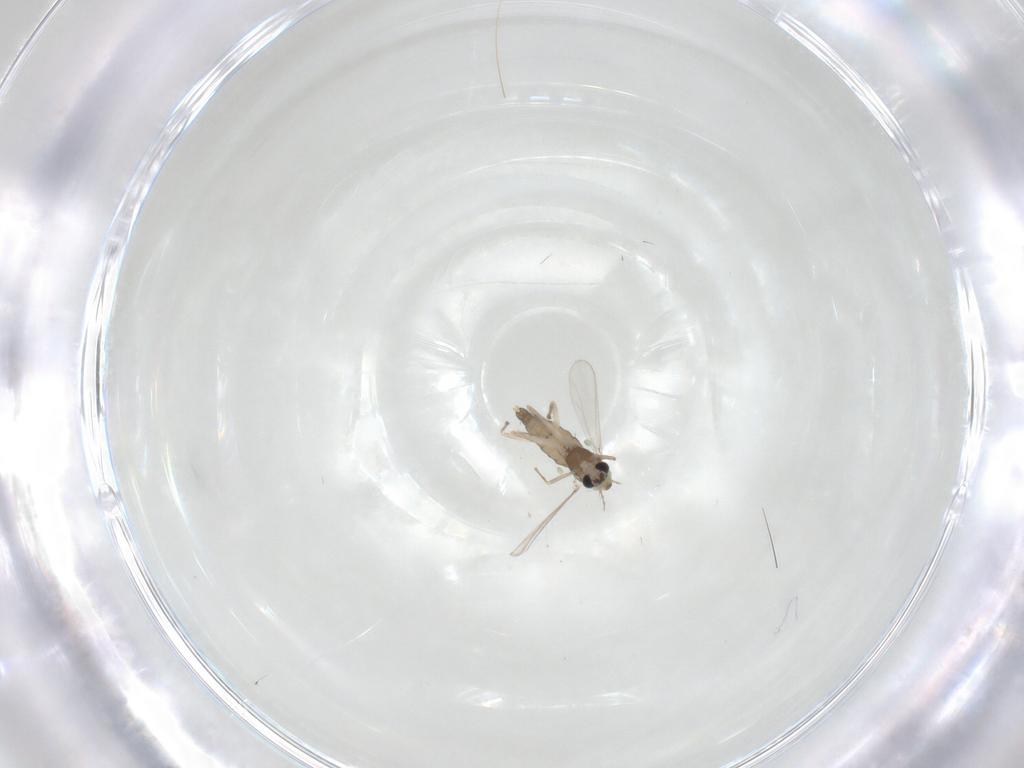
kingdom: Animalia
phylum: Arthropoda
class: Insecta
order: Diptera
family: Chironomidae
